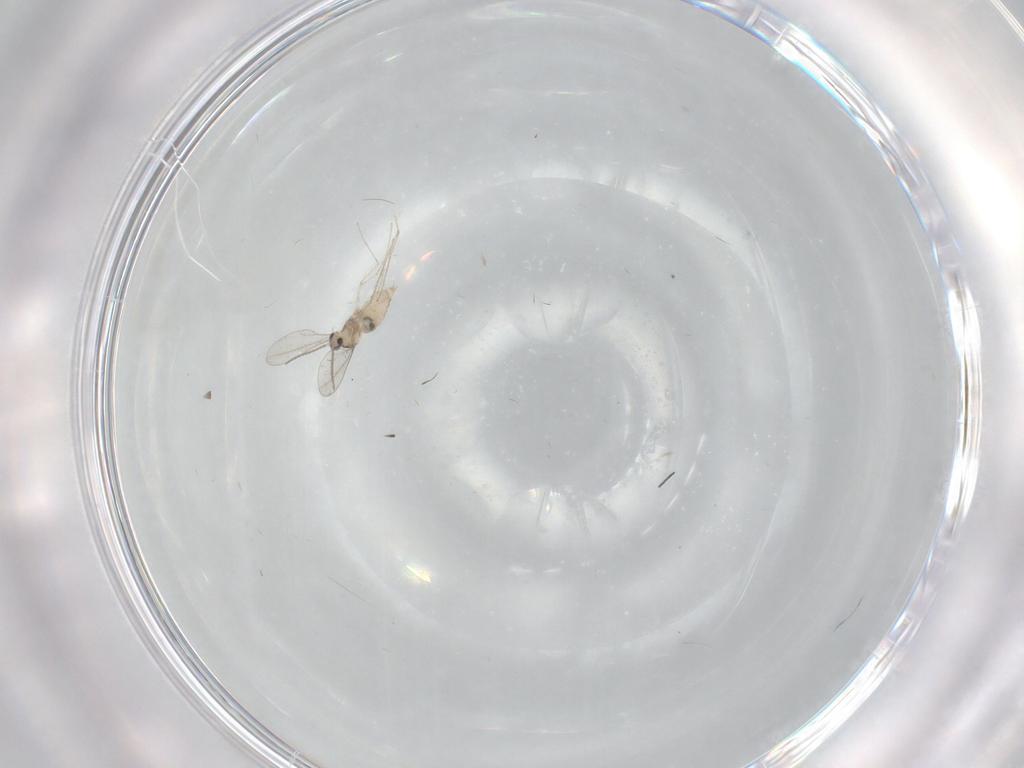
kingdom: Animalia
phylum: Arthropoda
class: Insecta
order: Diptera
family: Cecidomyiidae
